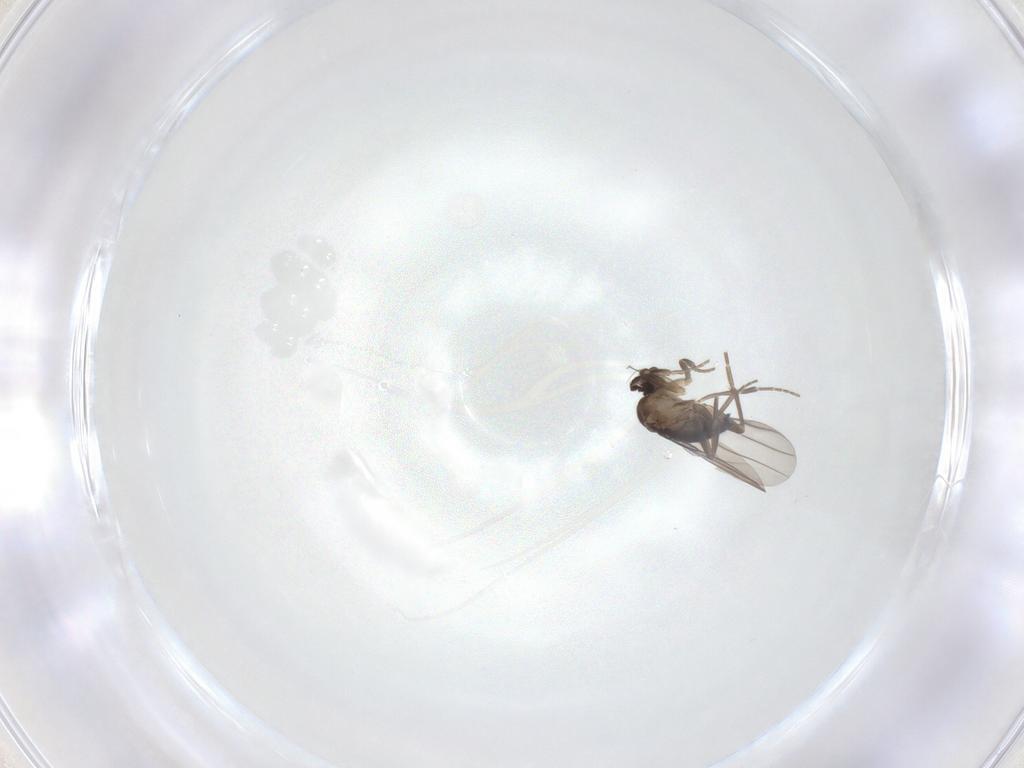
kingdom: Animalia
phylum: Arthropoda
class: Insecta
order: Diptera
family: Phoridae
